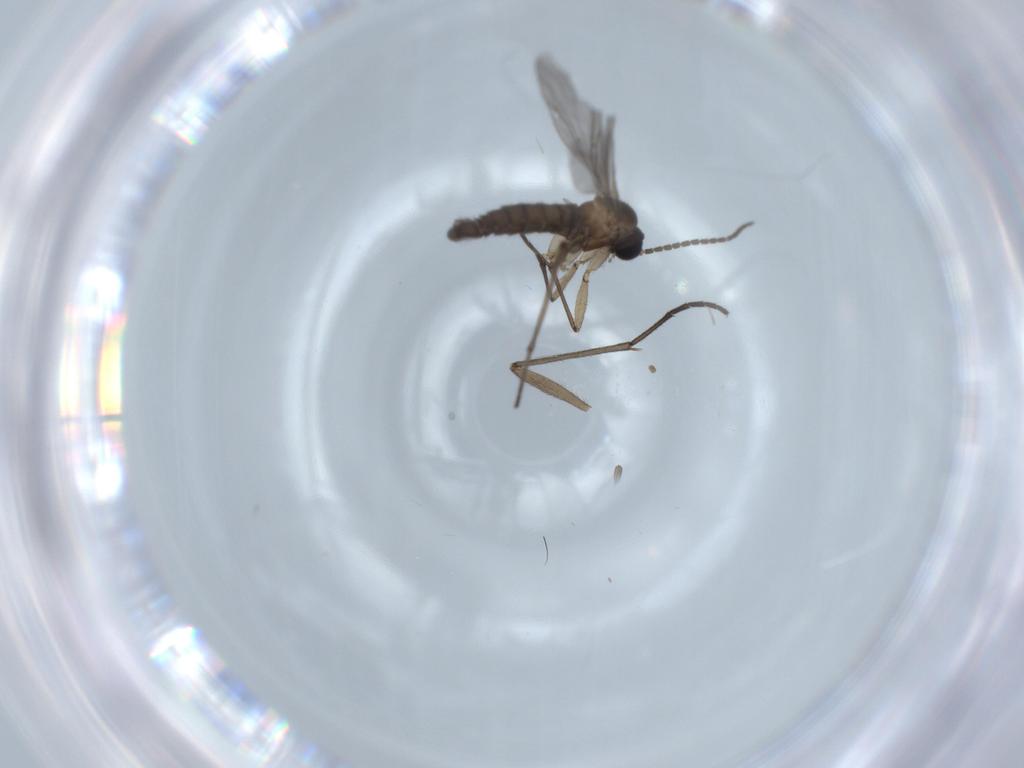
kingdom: Animalia
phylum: Arthropoda
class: Insecta
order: Diptera
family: Sciaridae
